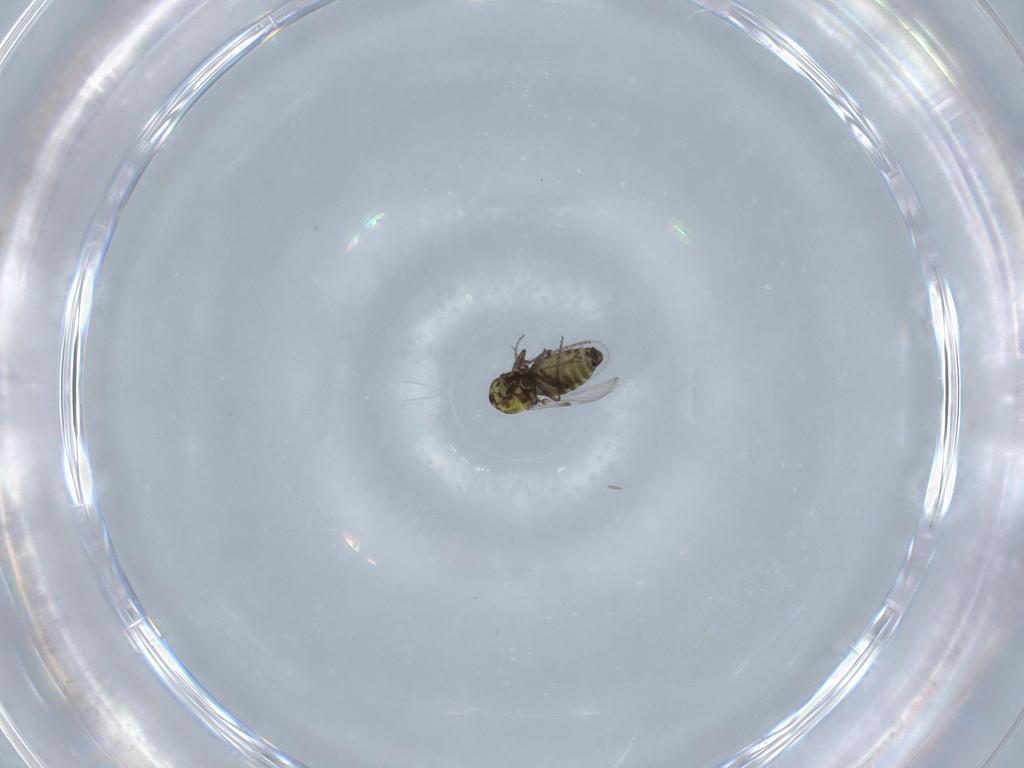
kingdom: Animalia
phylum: Arthropoda
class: Insecta
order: Diptera
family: Ceratopogonidae
